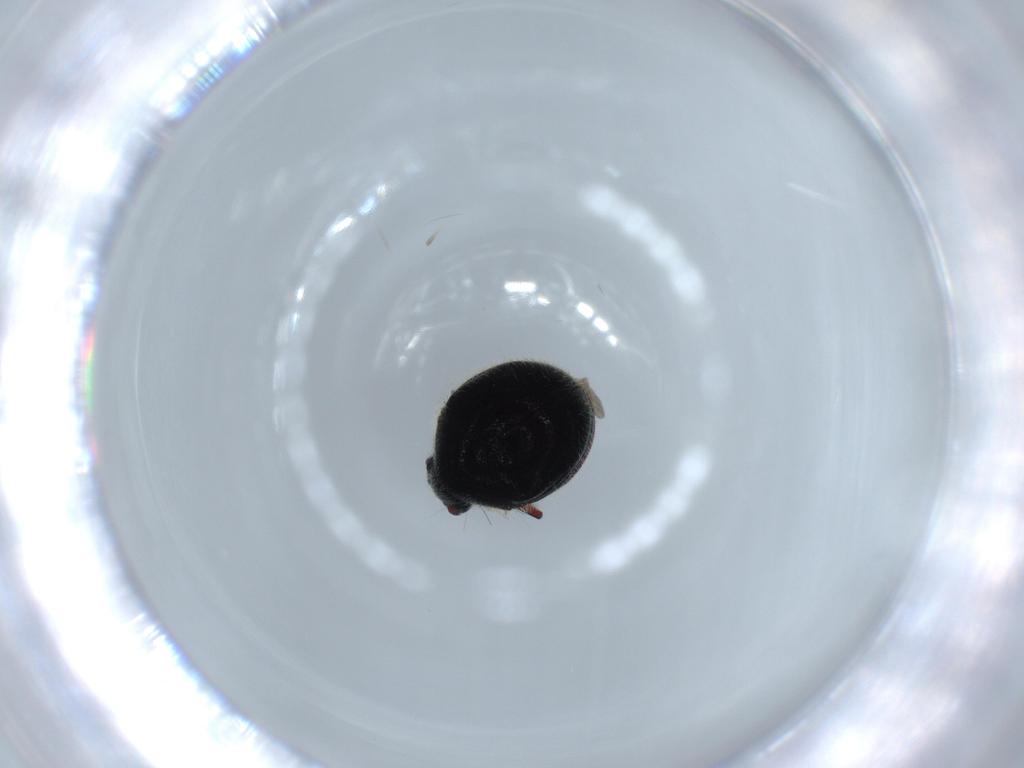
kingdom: Animalia
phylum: Arthropoda
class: Insecta
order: Coleoptera
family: Ptinidae
